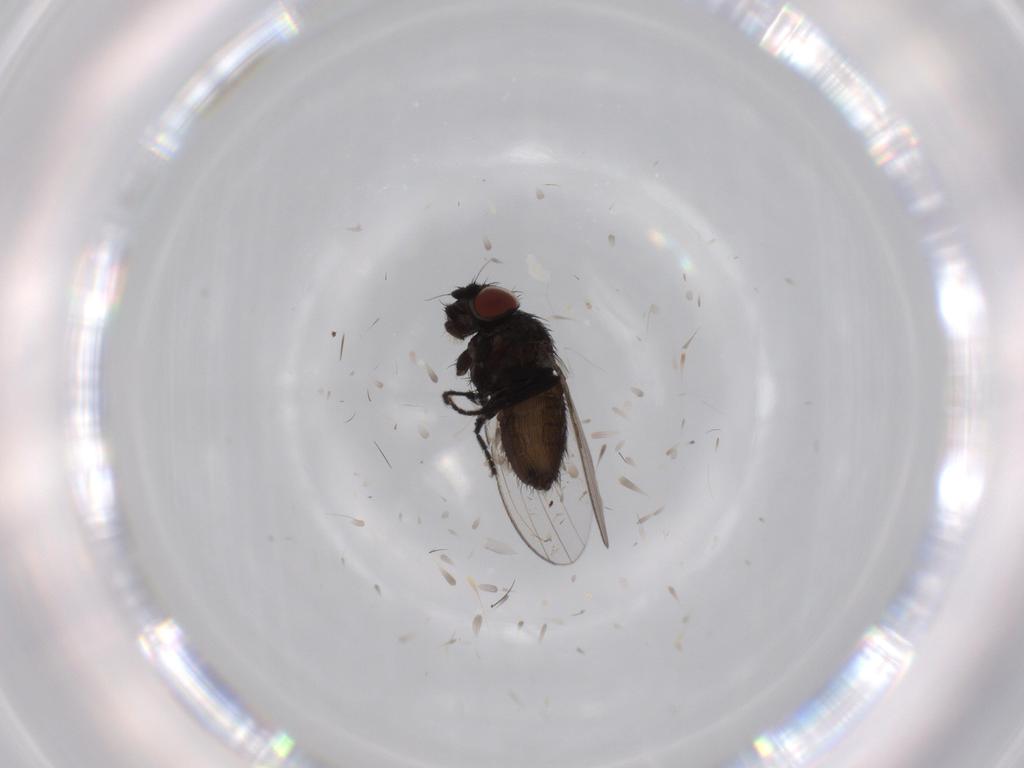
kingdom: Animalia
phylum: Arthropoda
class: Insecta
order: Diptera
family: Milichiidae
